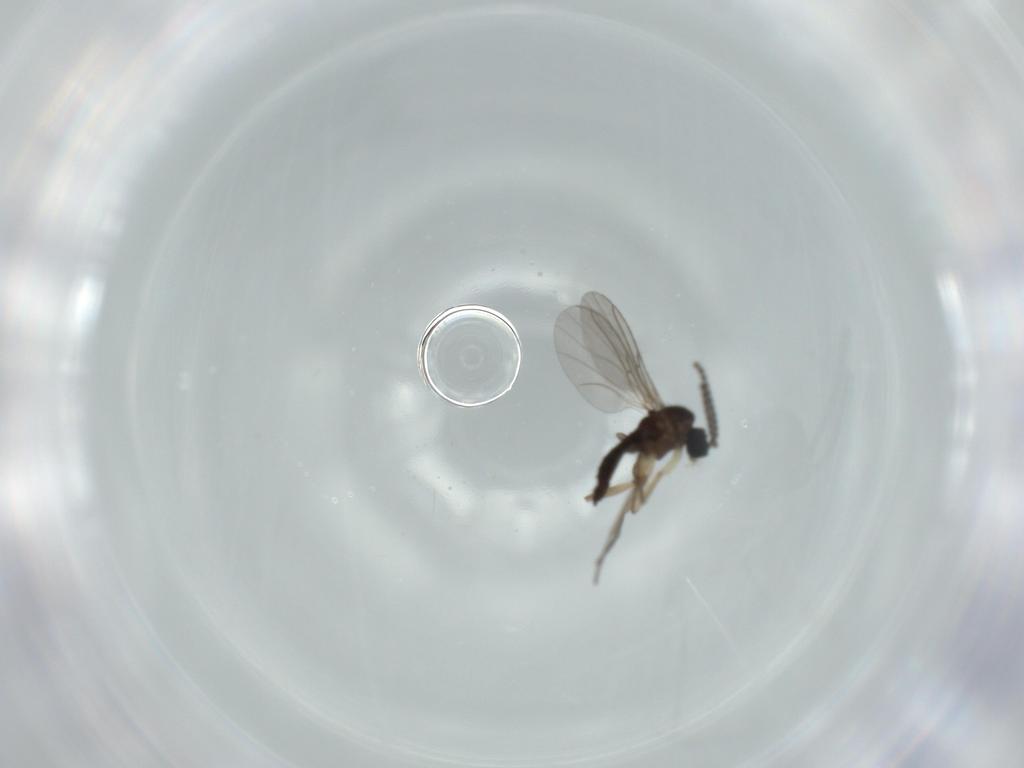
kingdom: Animalia
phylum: Arthropoda
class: Insecta
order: Diptera
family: Sciaridae
